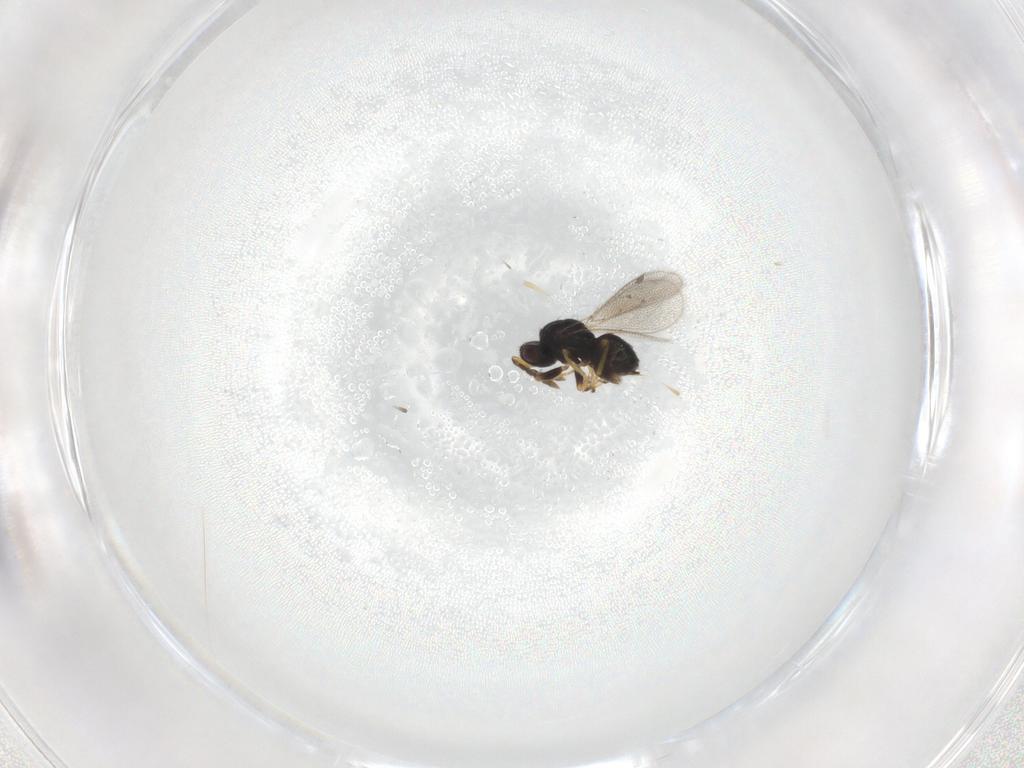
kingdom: Animalia
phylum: Arthropoda
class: Insecta
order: Hymenoptera
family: Eulophidae
